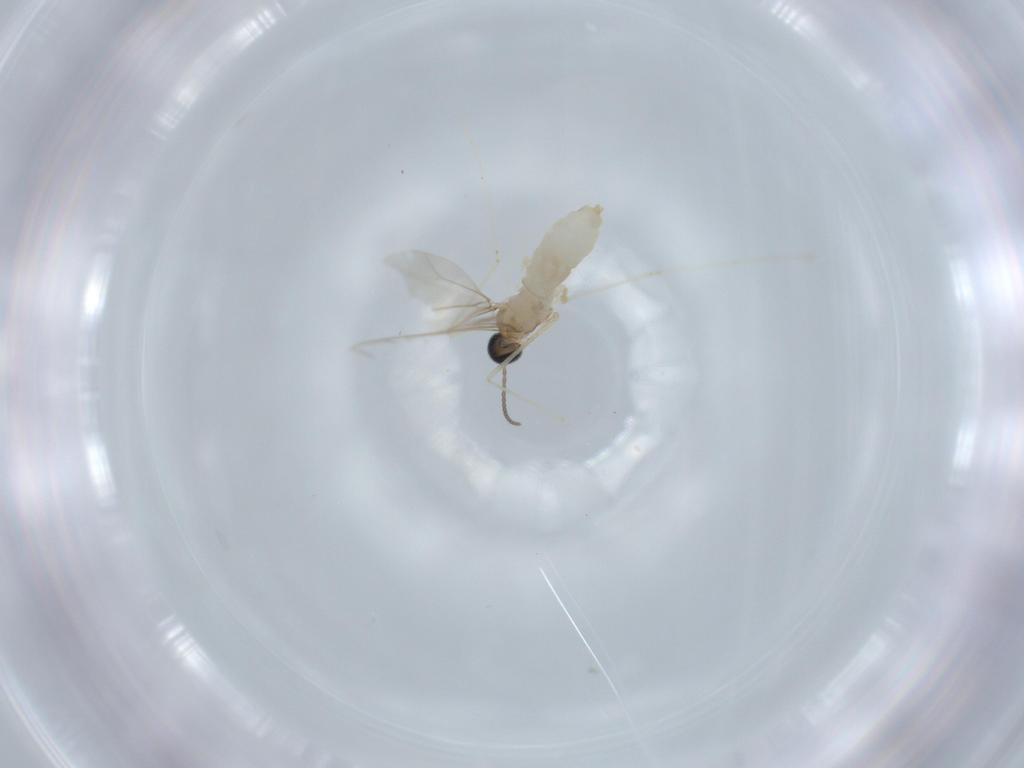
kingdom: Animalia
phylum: Arthropoda
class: Insecta
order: Diptera
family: Cecidomyiidae
